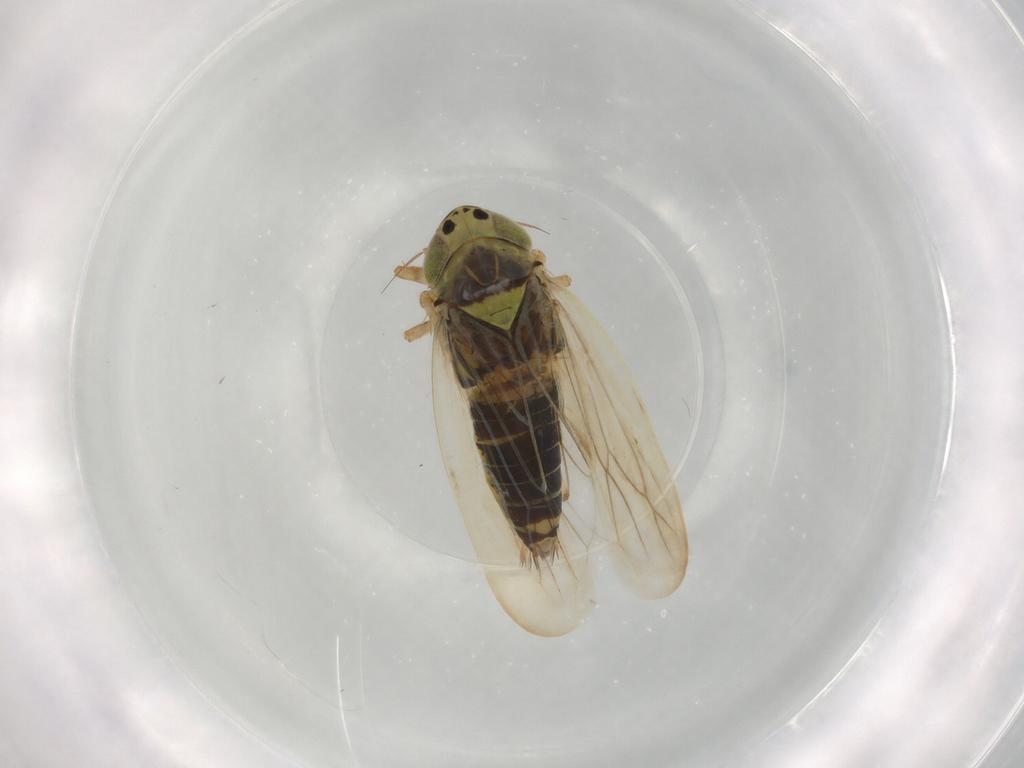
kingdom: Animalia
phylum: Arthropoda
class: Insecta
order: Hemiptera
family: Cicadellidae
